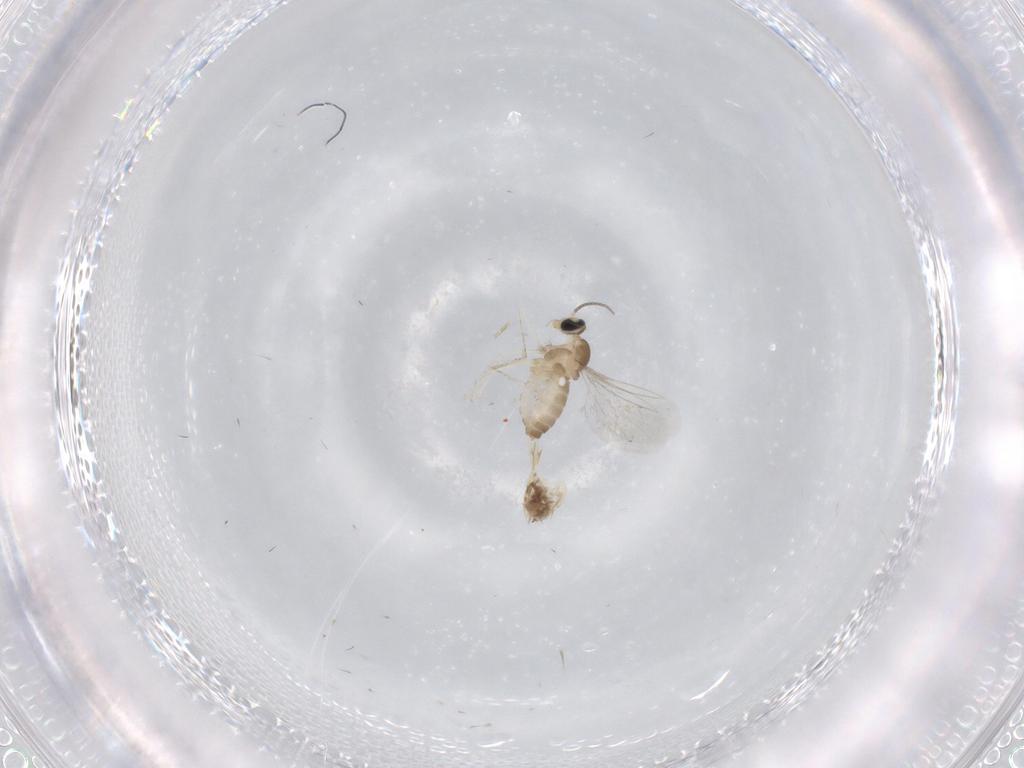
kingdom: Animalia
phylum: Arthropoda
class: Insecta
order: Diptera
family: Cecidomyiidae
